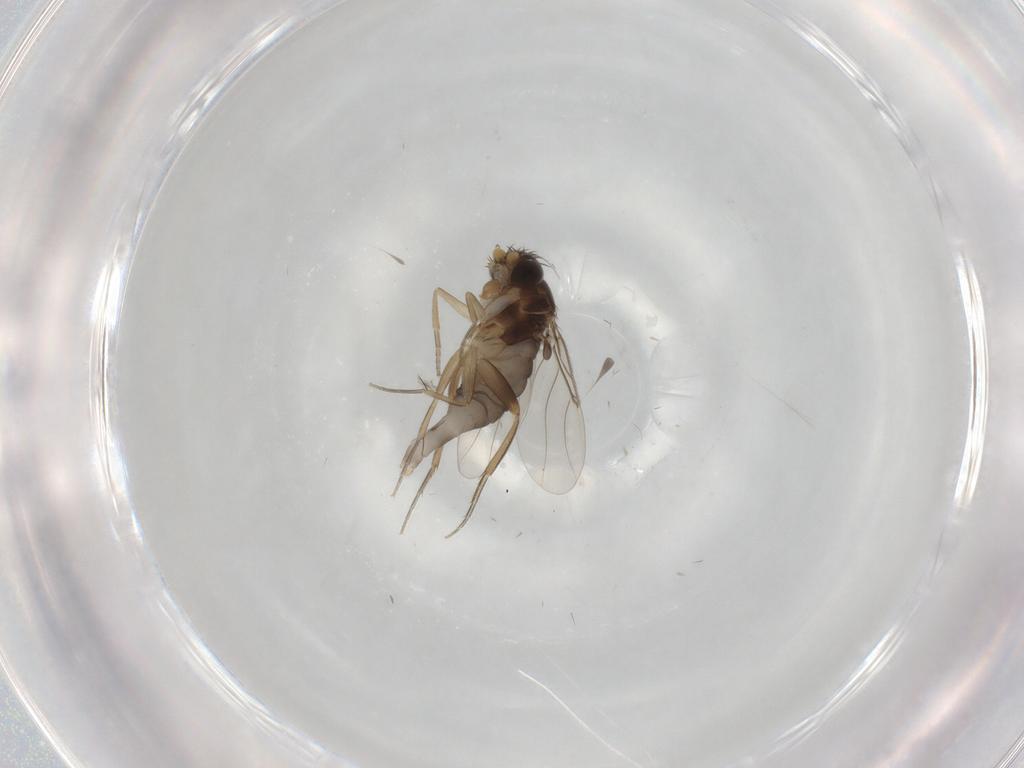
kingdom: Animalia
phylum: Arthropoda
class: Insecta
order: Diptera
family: Phoridae
